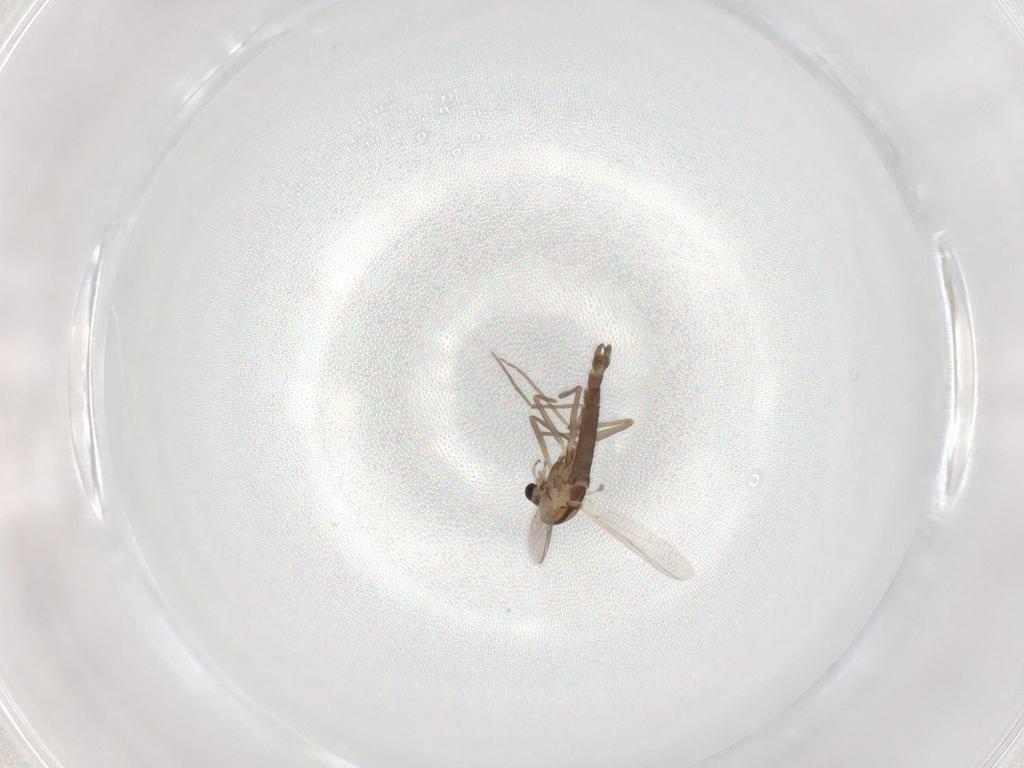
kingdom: Animalia
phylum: Arthropoda
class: Insecta
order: Diptera
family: Chironomidae
